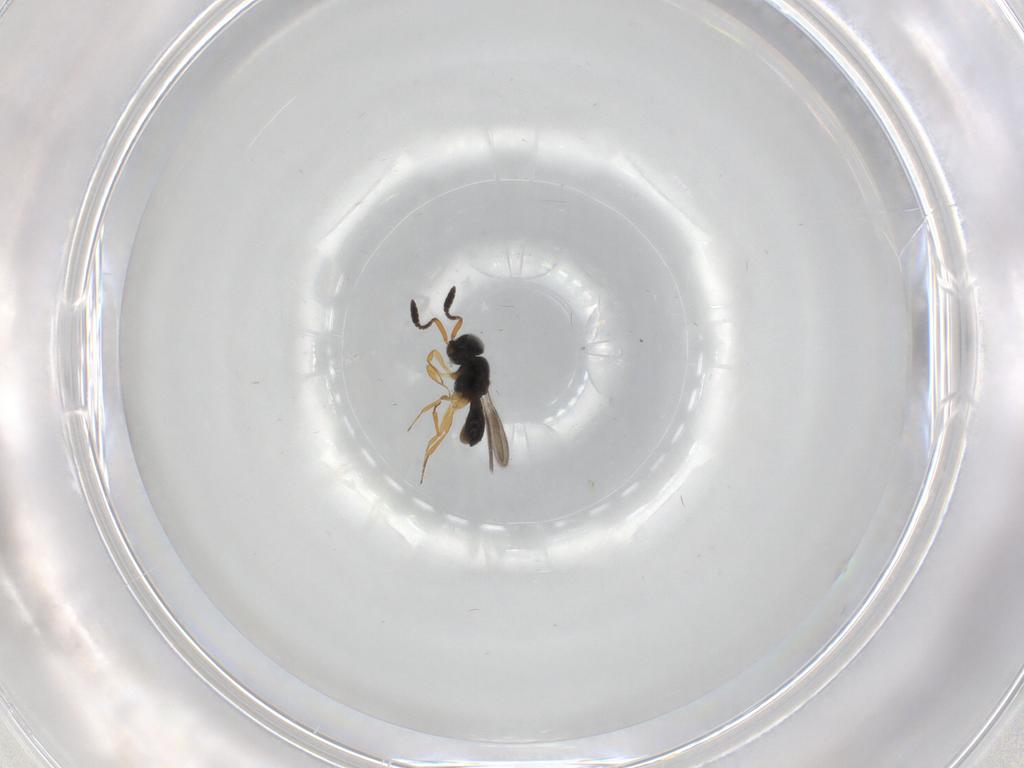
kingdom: Animalia
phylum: Arthropoda
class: Insecta
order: Hymenoptera
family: Scelionidae
